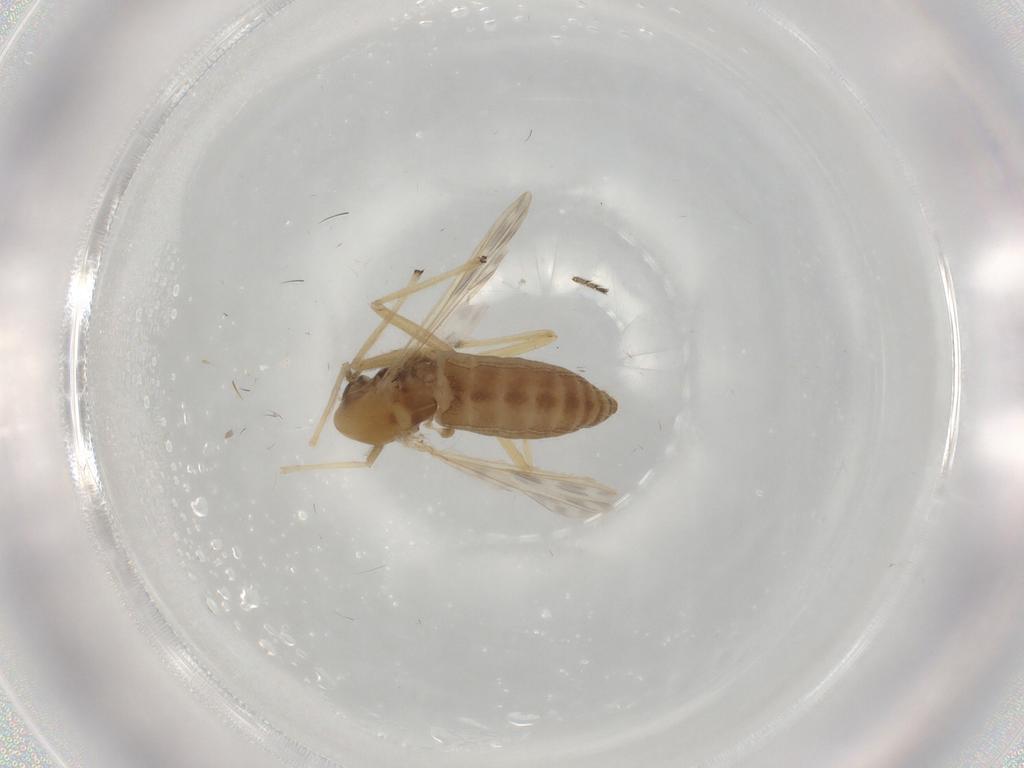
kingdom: Animalia
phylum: Arthropoda
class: Insecta
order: Diptera
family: Chironomidae
